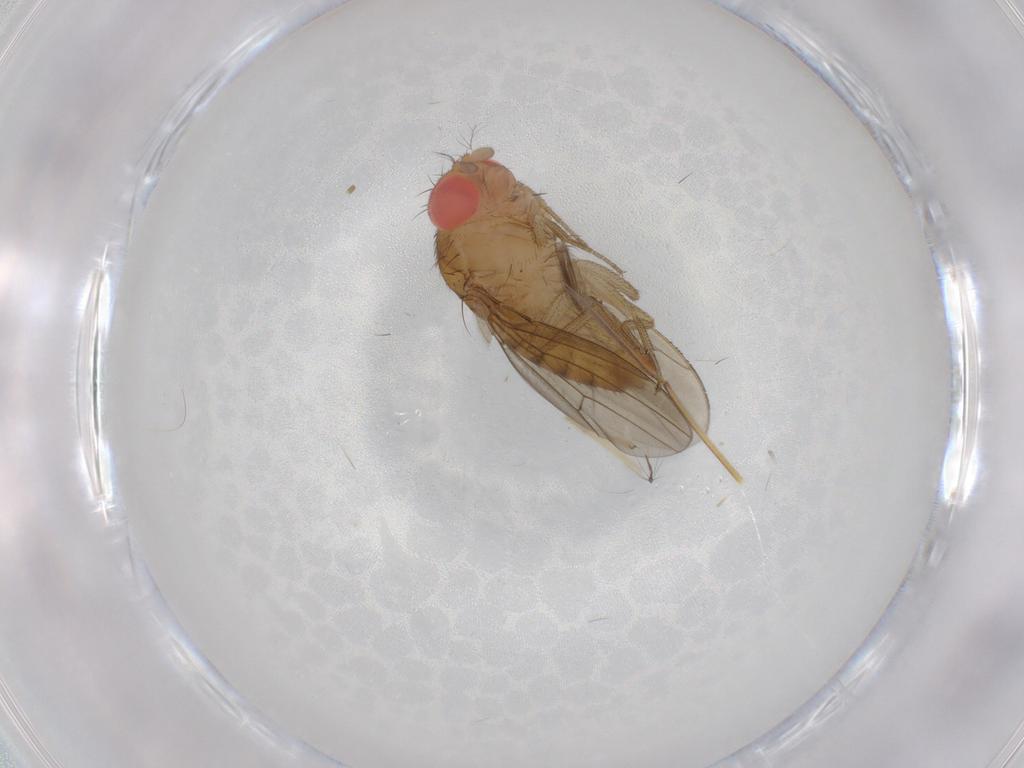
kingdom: Animalia
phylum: Arthropoda
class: Insecta
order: Diptera
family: Drosophilidae
